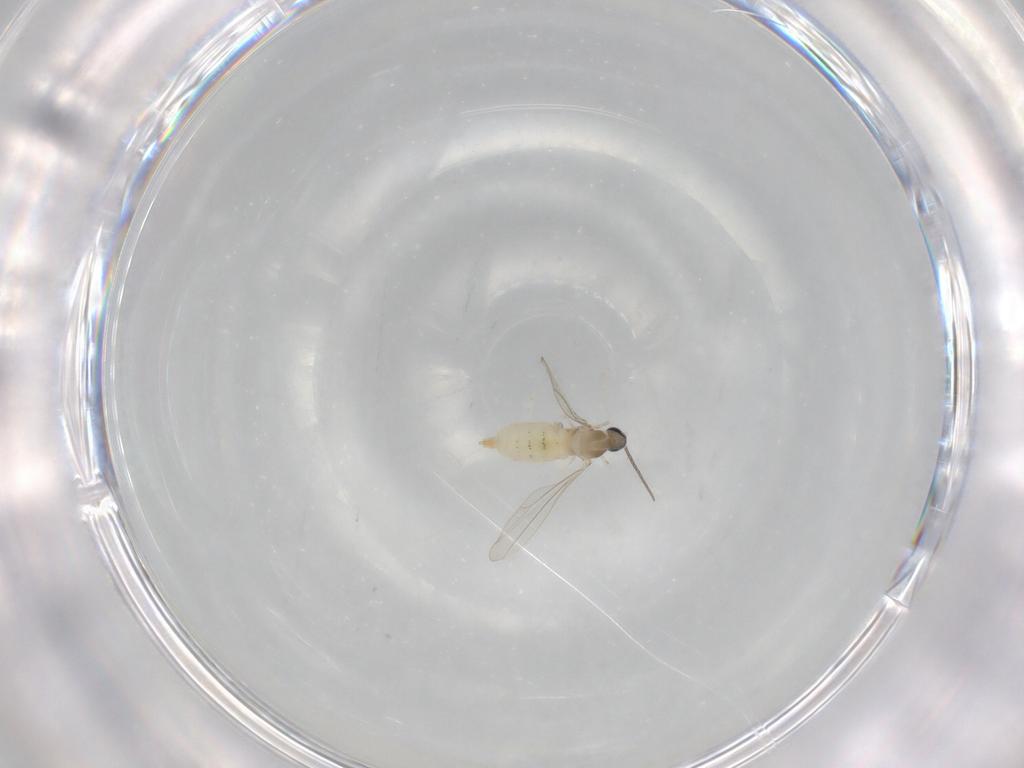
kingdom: Animalia
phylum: Arthropoda
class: Insecta
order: Diptera
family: Cecidomyiidae
